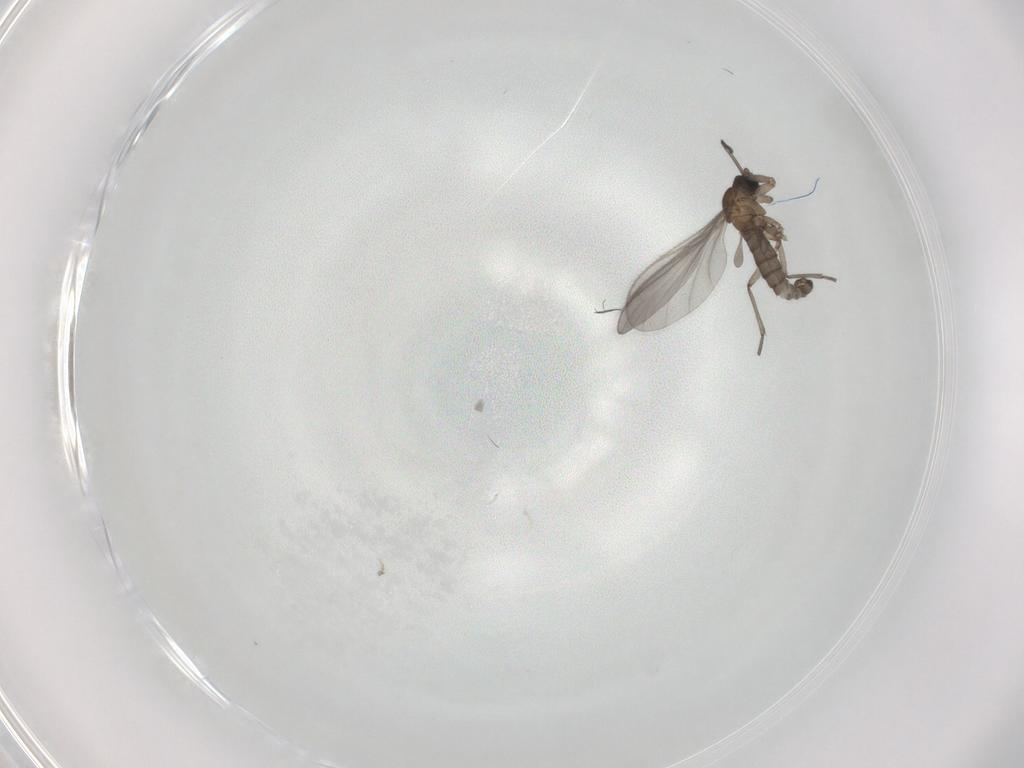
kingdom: Animalia
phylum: Arthropoda
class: Insecta
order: Diptera
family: Sciaridae
